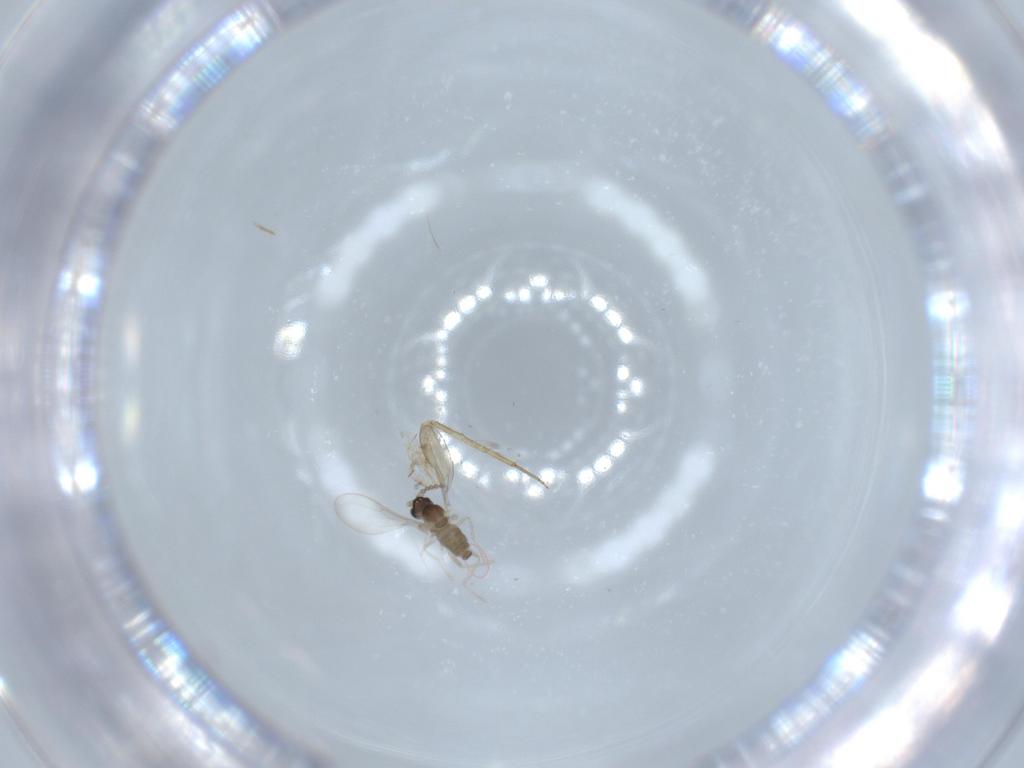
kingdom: Animalia
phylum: Arthropoda
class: Insecta
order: Diptera
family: Cecidomyiidae
